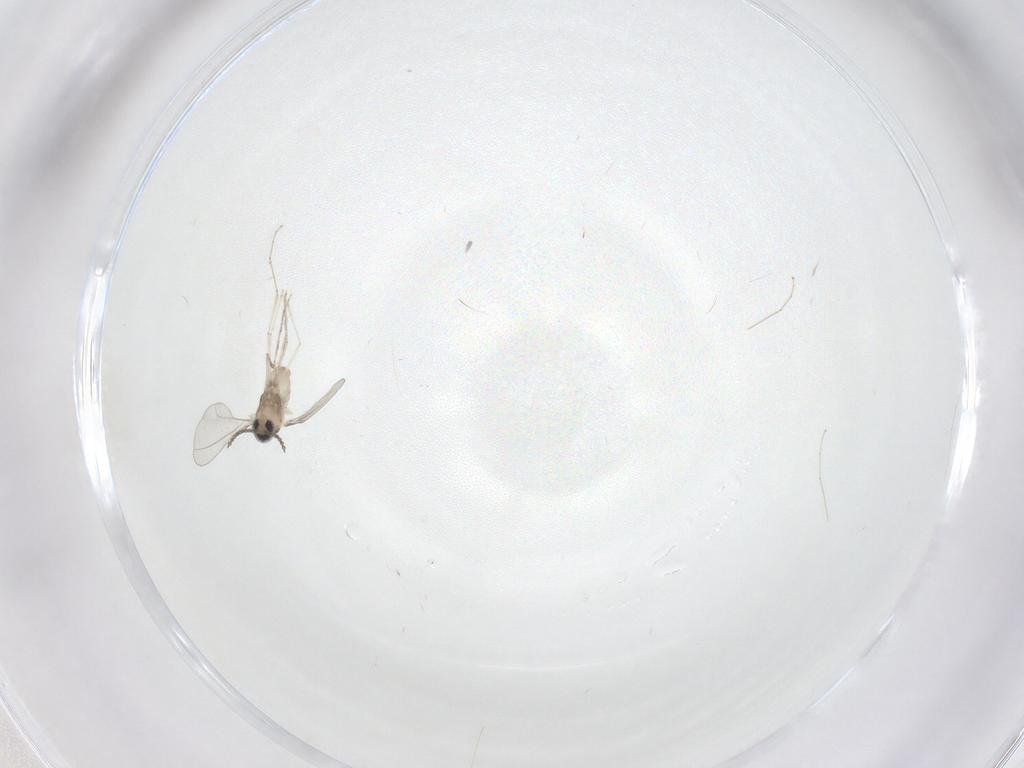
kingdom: Animalia
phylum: Arthropoda
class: Insecta
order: Diptera
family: Cecidomyiidae
